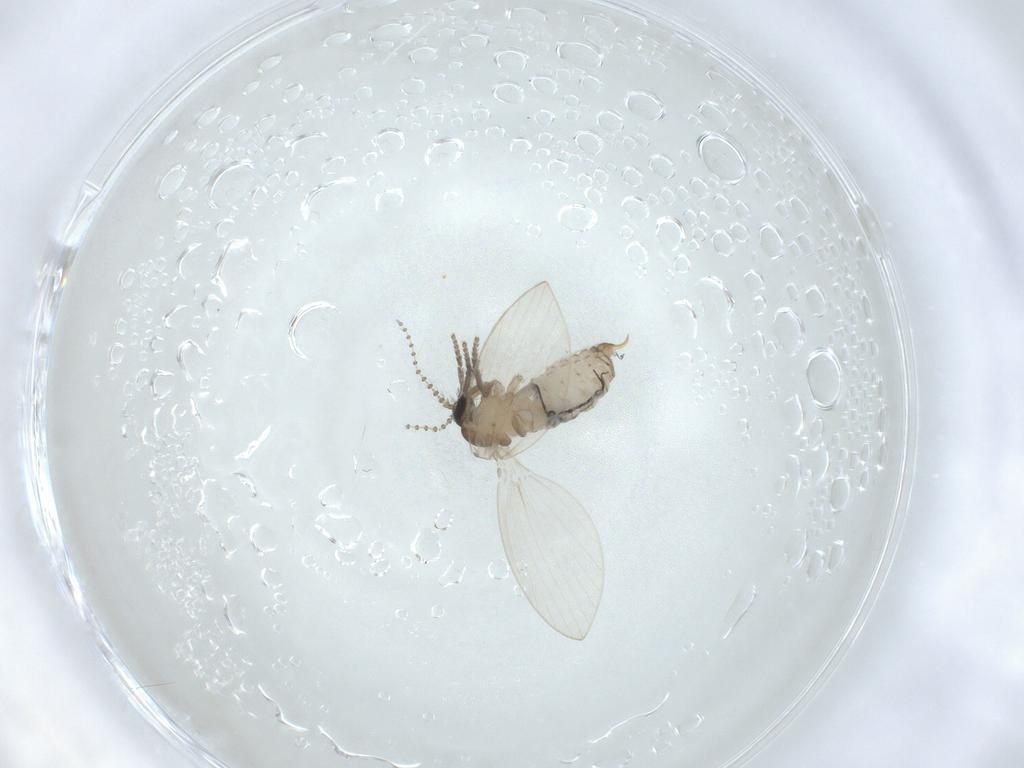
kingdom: Animalia
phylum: Arthropoda
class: Insecta
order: Diptera
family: Psychodidae
